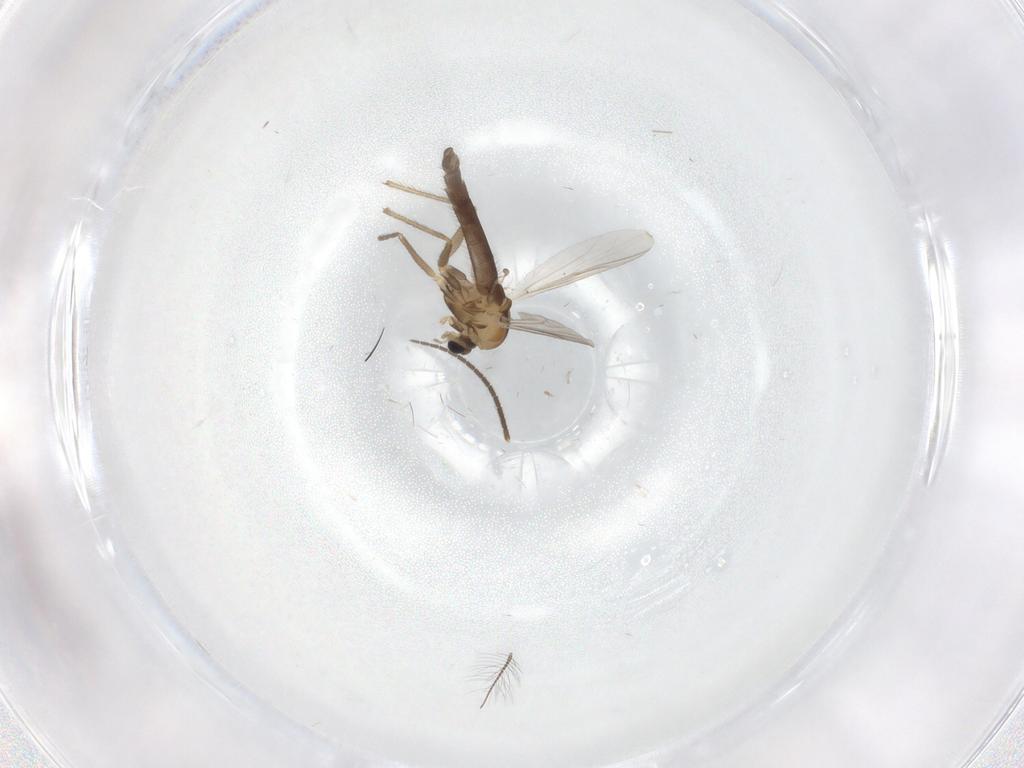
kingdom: Animalia
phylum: Arthropoda
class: Insecta
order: Diptera
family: Chironomidae
